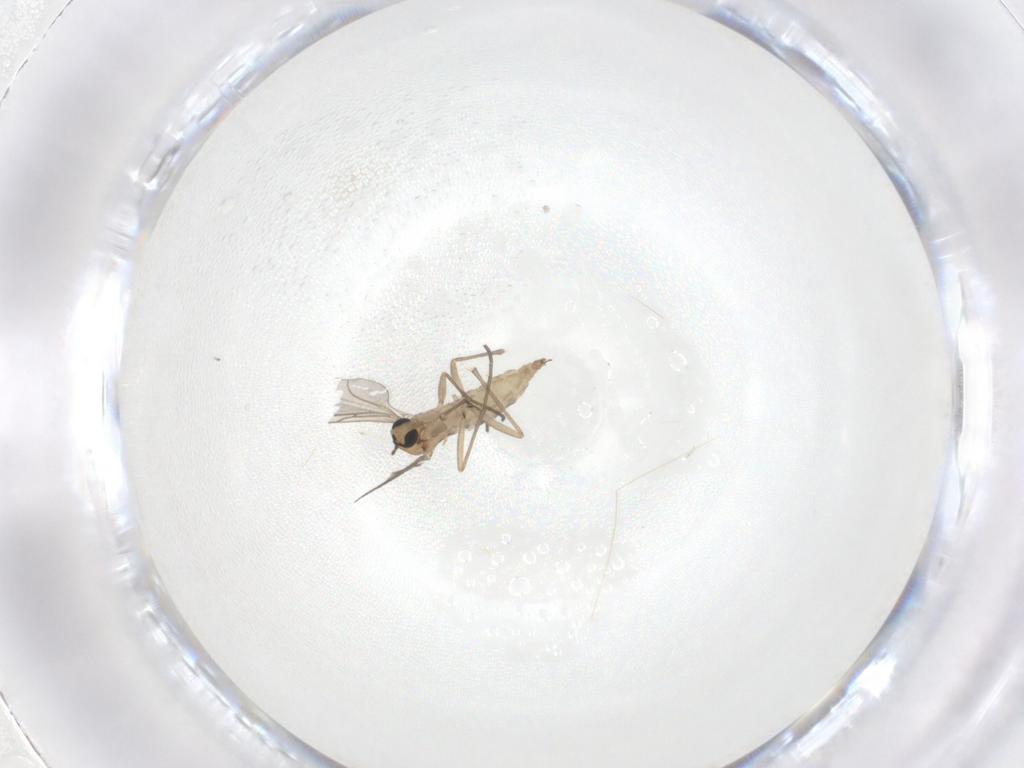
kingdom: Animalia
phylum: Arthropoda
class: Insecta
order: Diptera
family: Sciaridae
